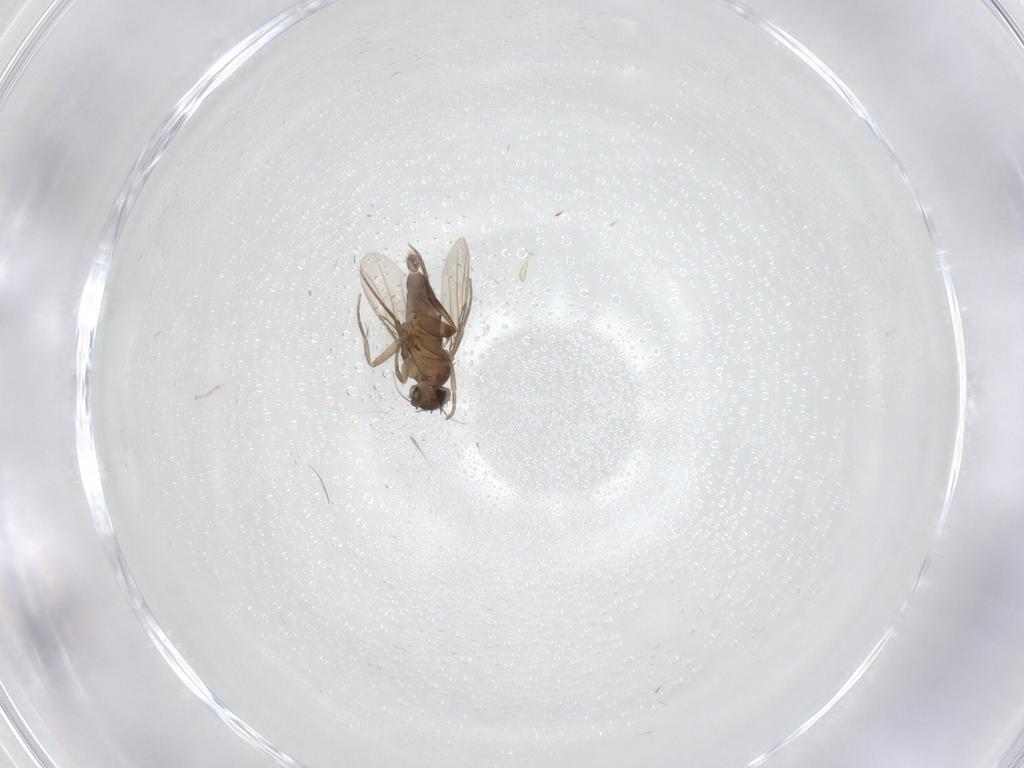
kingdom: Animalia
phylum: Arthropoda
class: Insecta
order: Diptera
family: Phoridae
